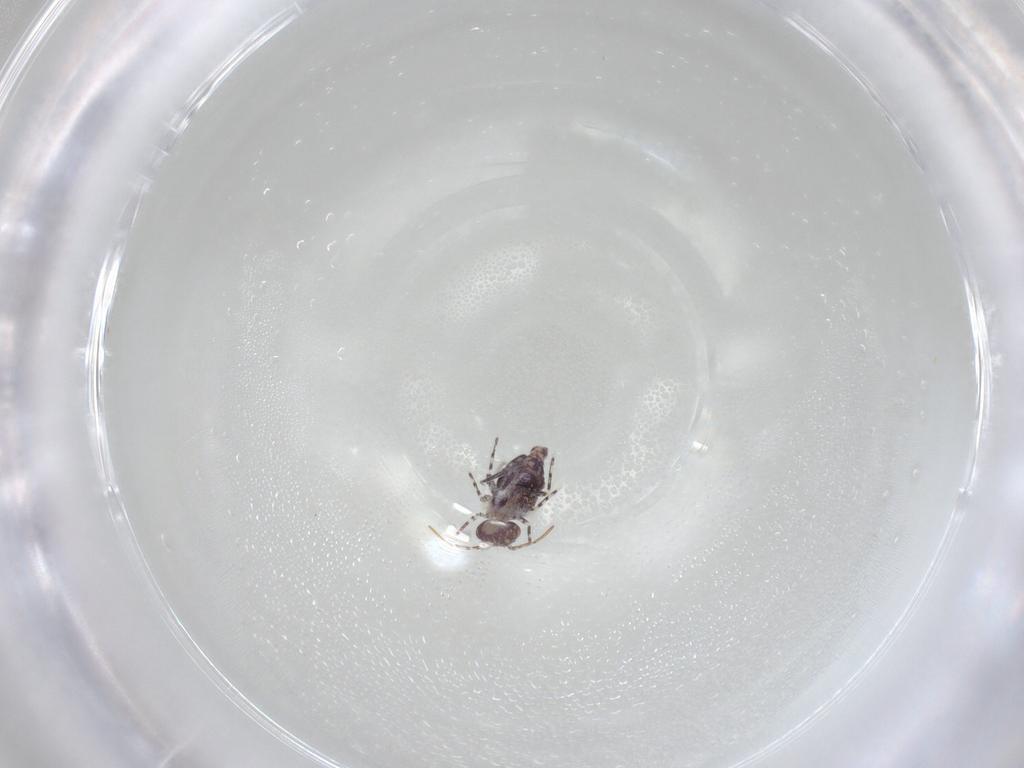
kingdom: Animalia
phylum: Arthropoda
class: Collembola
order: Symphypleona
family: Bourletiellidae
